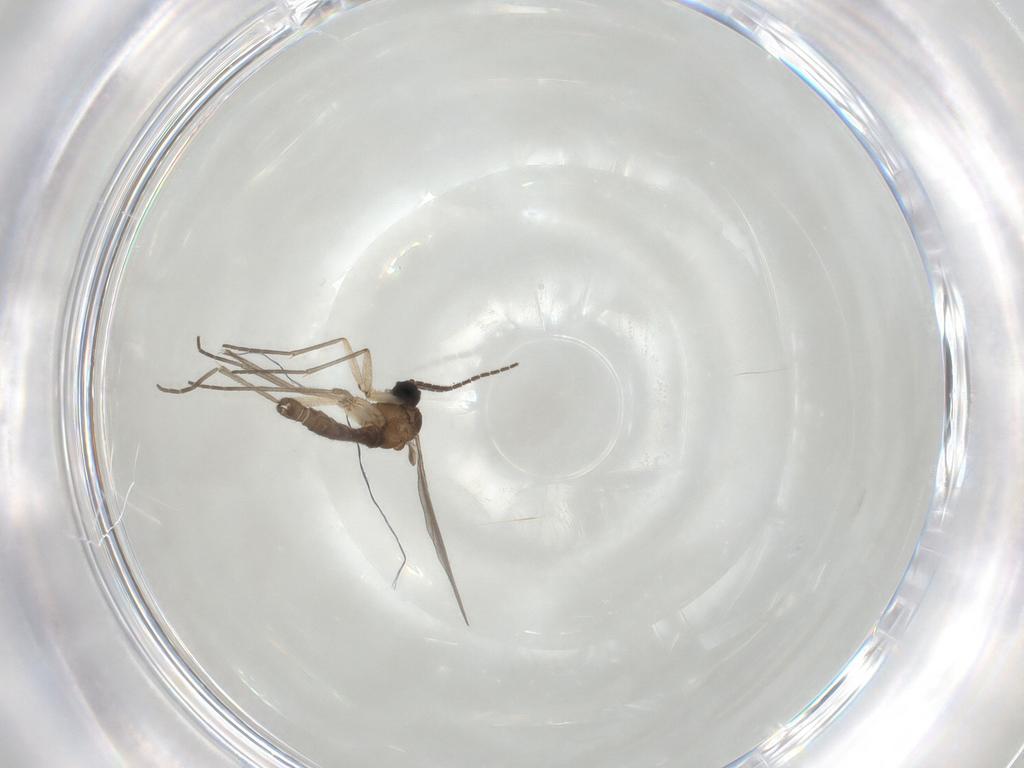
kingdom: Animalia
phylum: Arthropoda
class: Insecta
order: Diptera
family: Sciaridae
